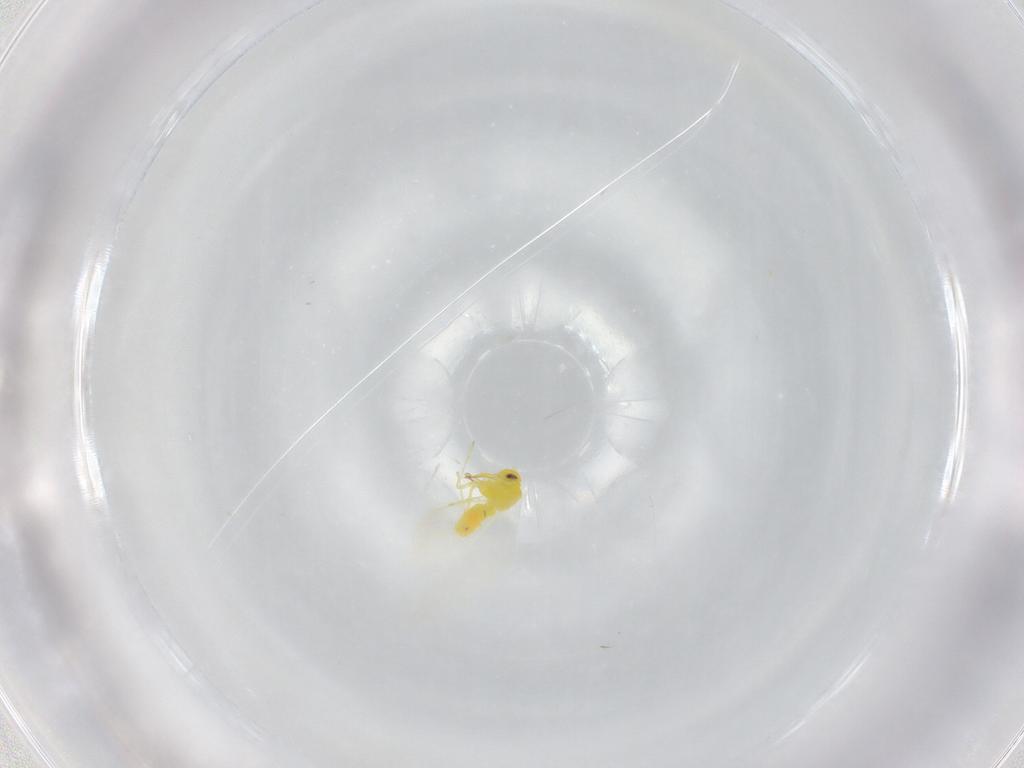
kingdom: Animalia
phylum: Arthropoda
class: Insecta
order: Hemiptera
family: Aleyrodidae
